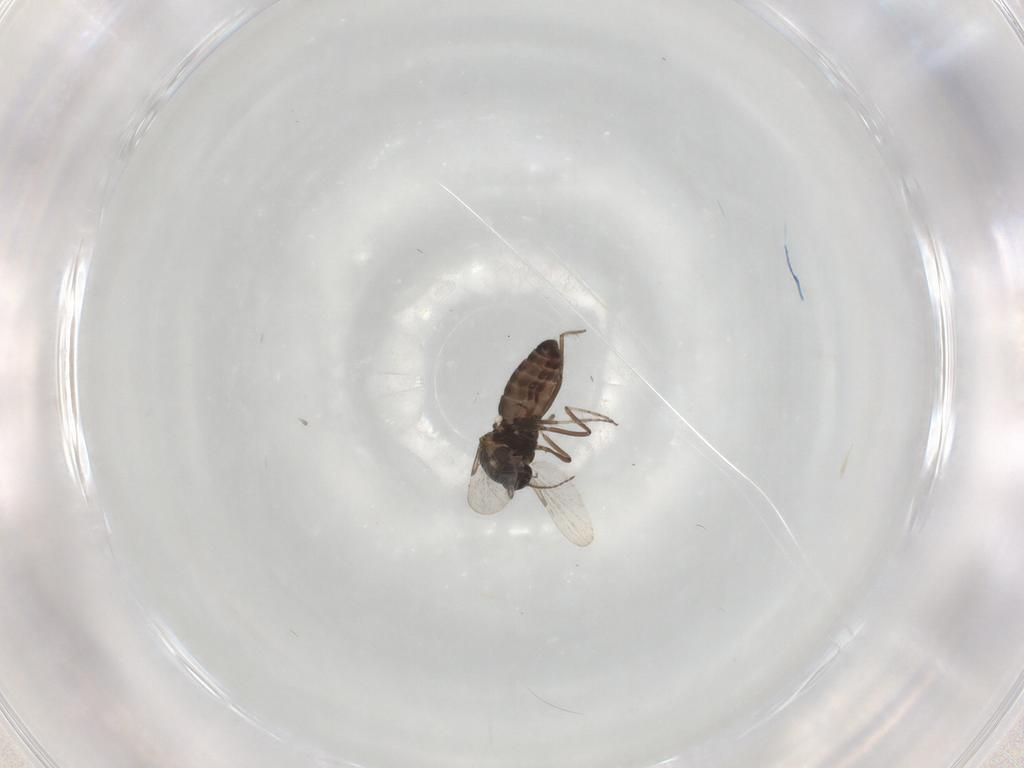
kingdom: Animalia
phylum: Arthropoda
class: Insecta
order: Diptera
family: Ceratopogonidae
